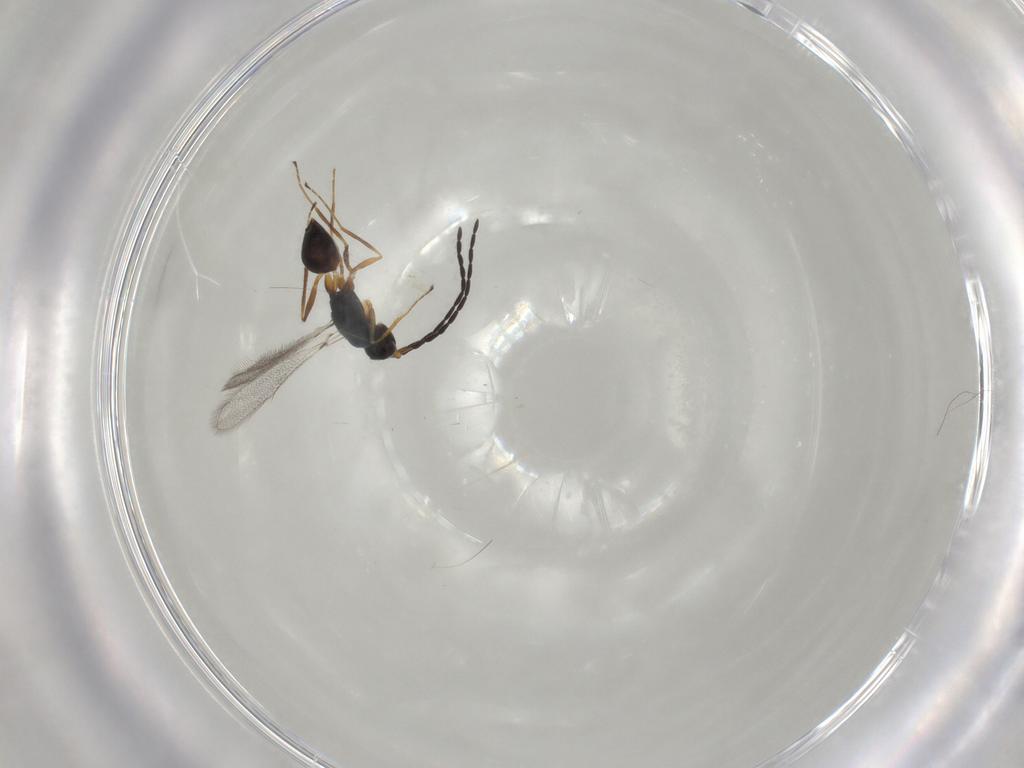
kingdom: Animalia
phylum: Arthropoda
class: Insecta
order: Hymenoptera
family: Mymaridae
